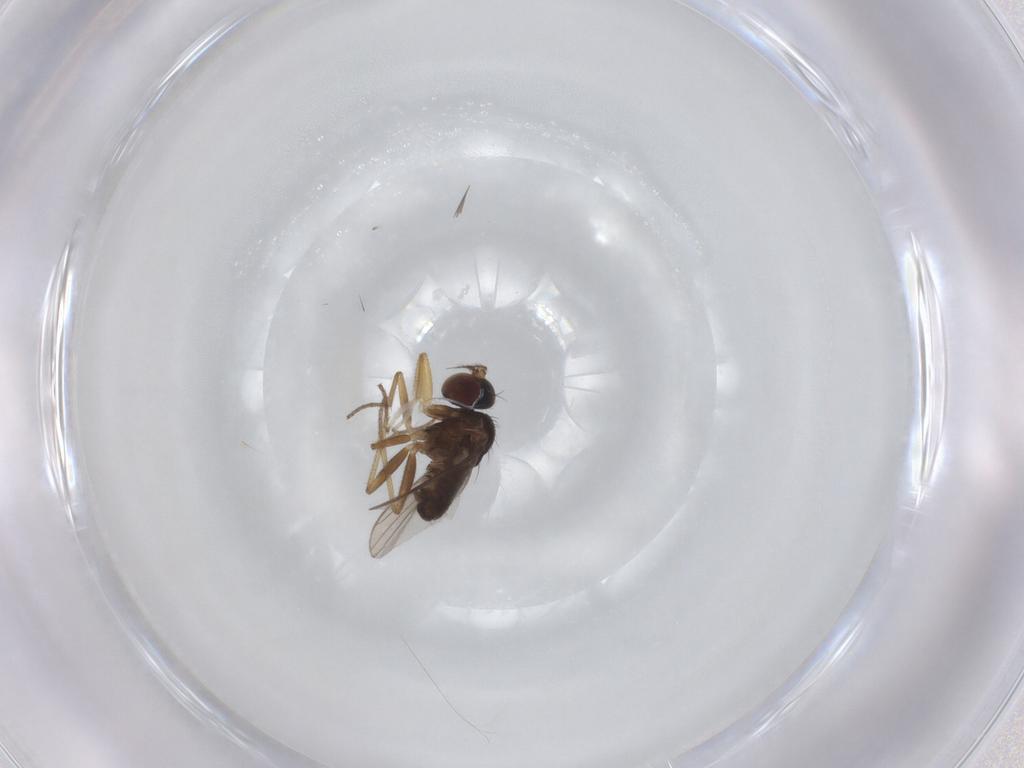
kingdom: Animalia
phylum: Arthropoda
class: Insecta
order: Diptera
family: Dolichopodidae
